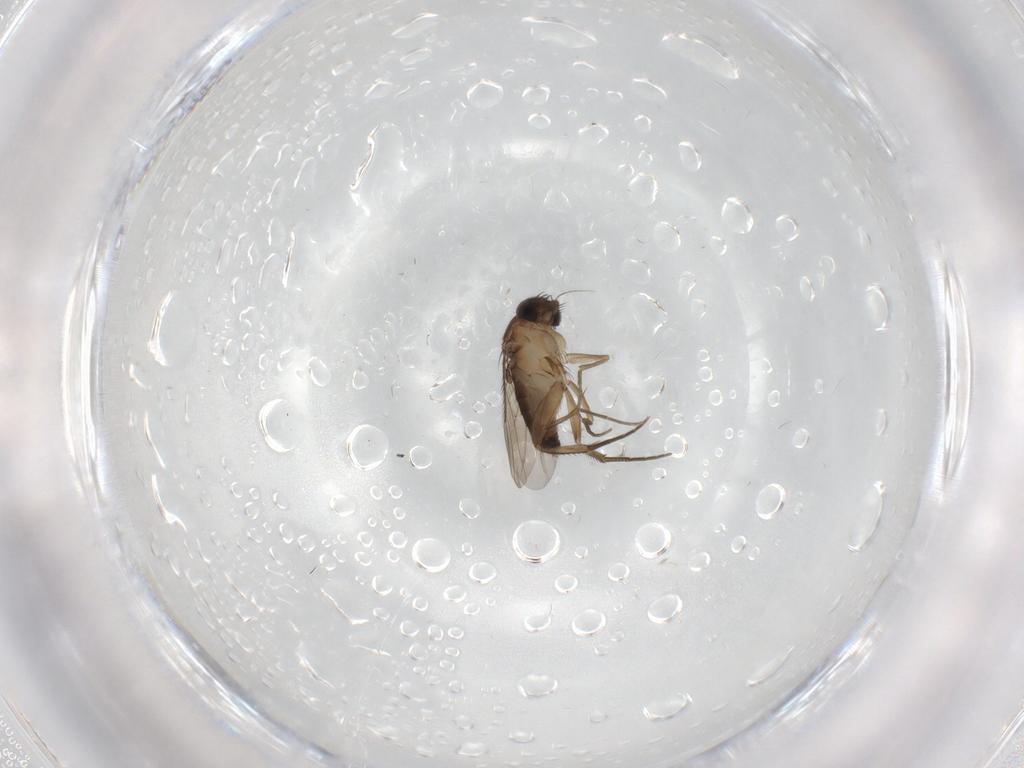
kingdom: Animalia
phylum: Arthropoda
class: Insecta
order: Diptera
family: Phoridae
